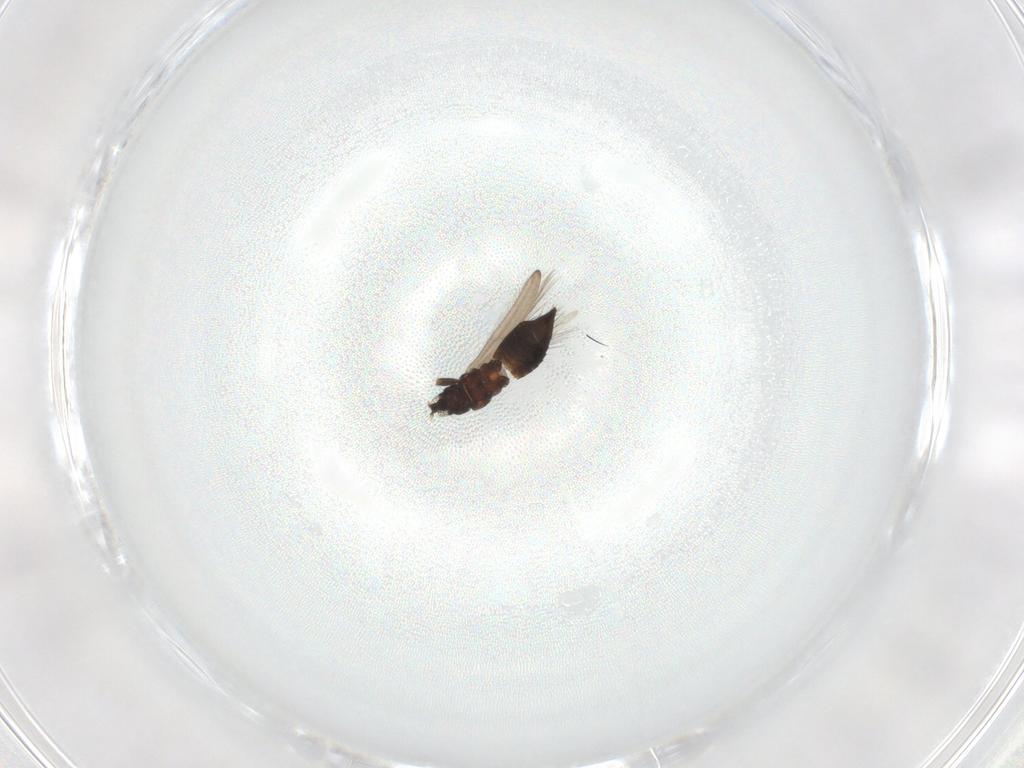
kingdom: Animalia
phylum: Arthropoda
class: Insecta
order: Thysanoptera
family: Melanthripidae
